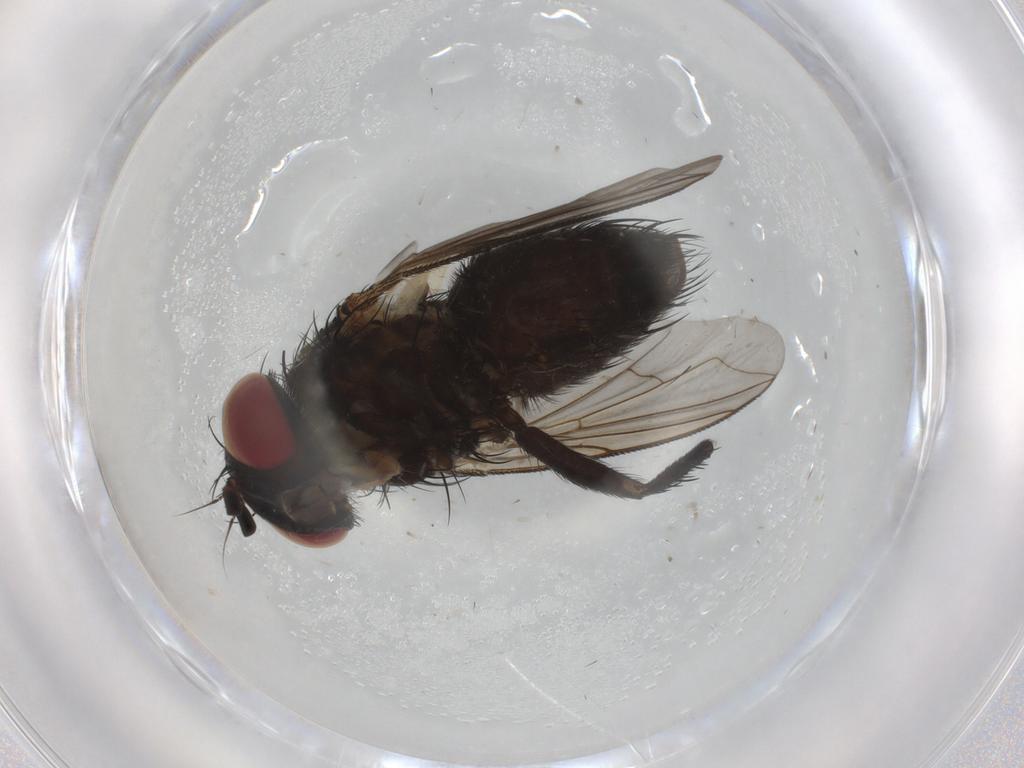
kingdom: Animalia
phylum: Arthropoda
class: Insecta
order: Diptera
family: Tachinidae
